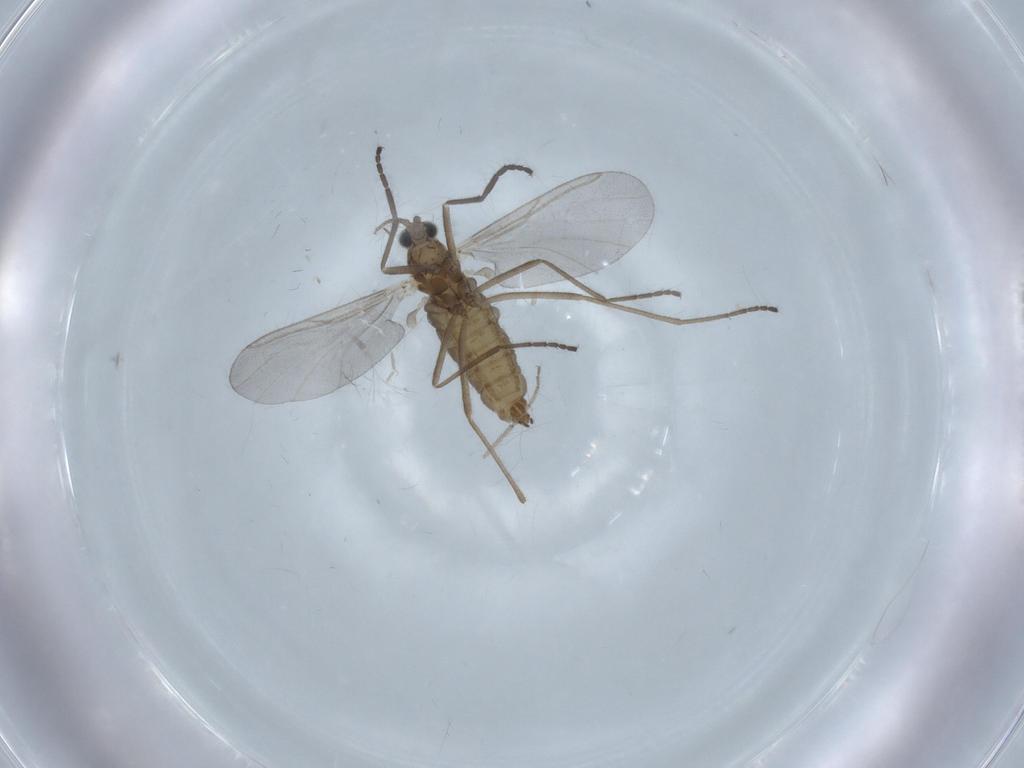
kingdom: Animalia
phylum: Arthropoda
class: Insecta
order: Diptera
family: Cecidomyiidae
